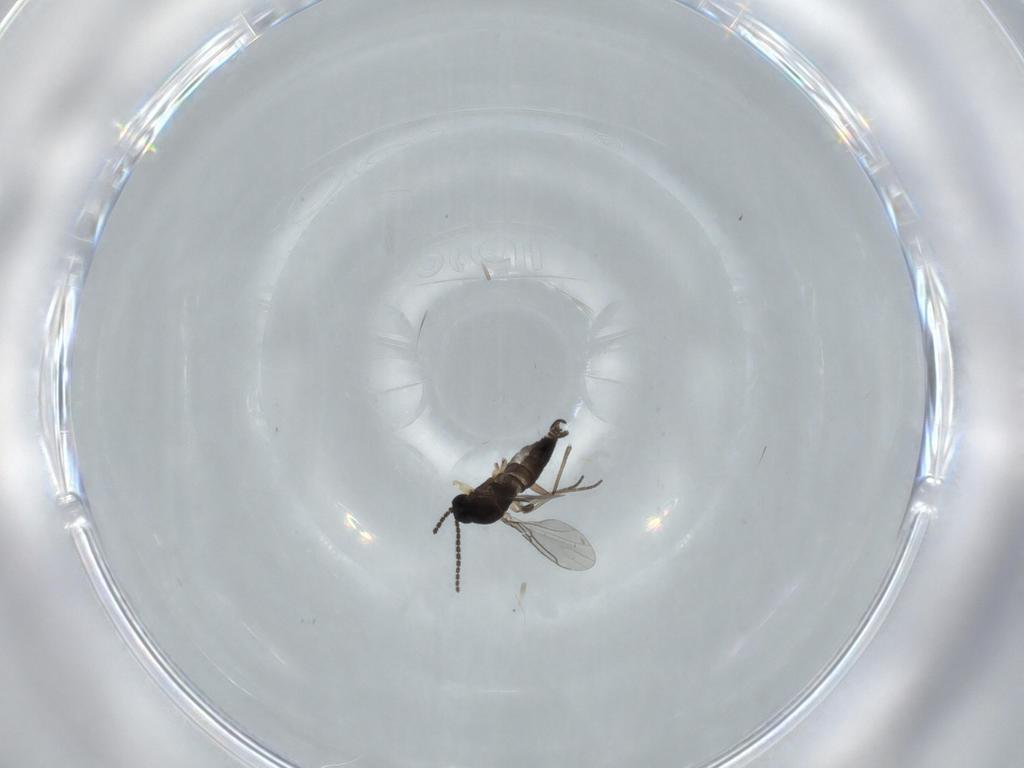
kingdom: Animalia
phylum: Arthropoda
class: Insecta
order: Diptera
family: Sciaridae
